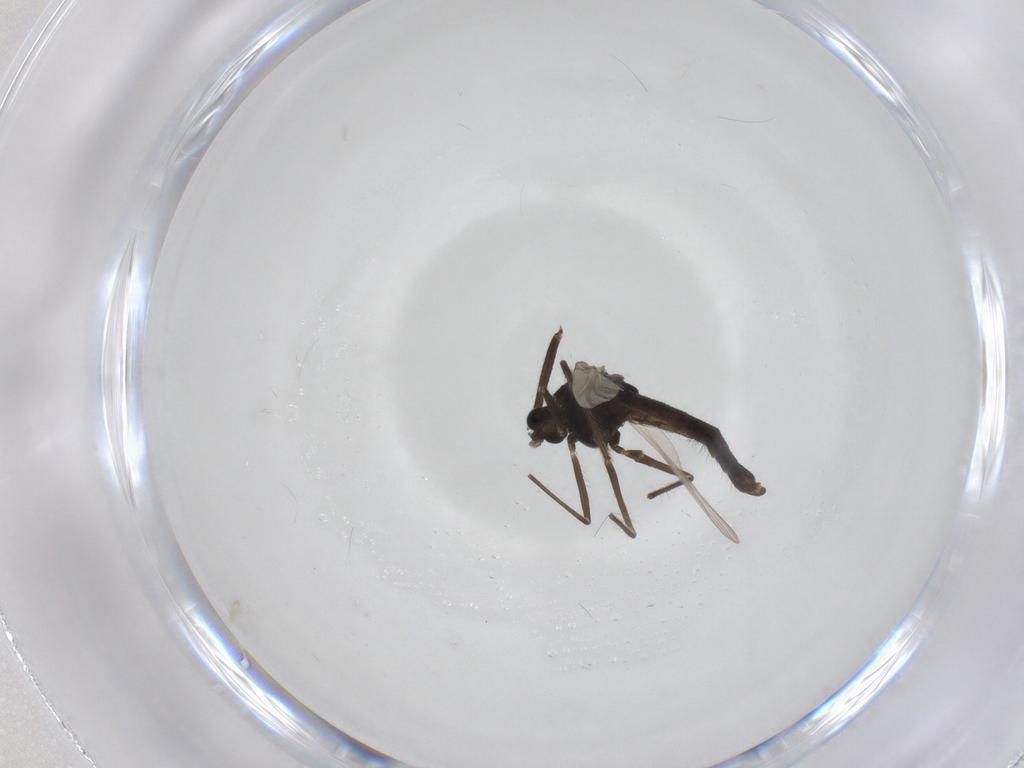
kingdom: Animalia
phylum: Arthropoda
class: Insecta
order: Diptera
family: Chironomidae
